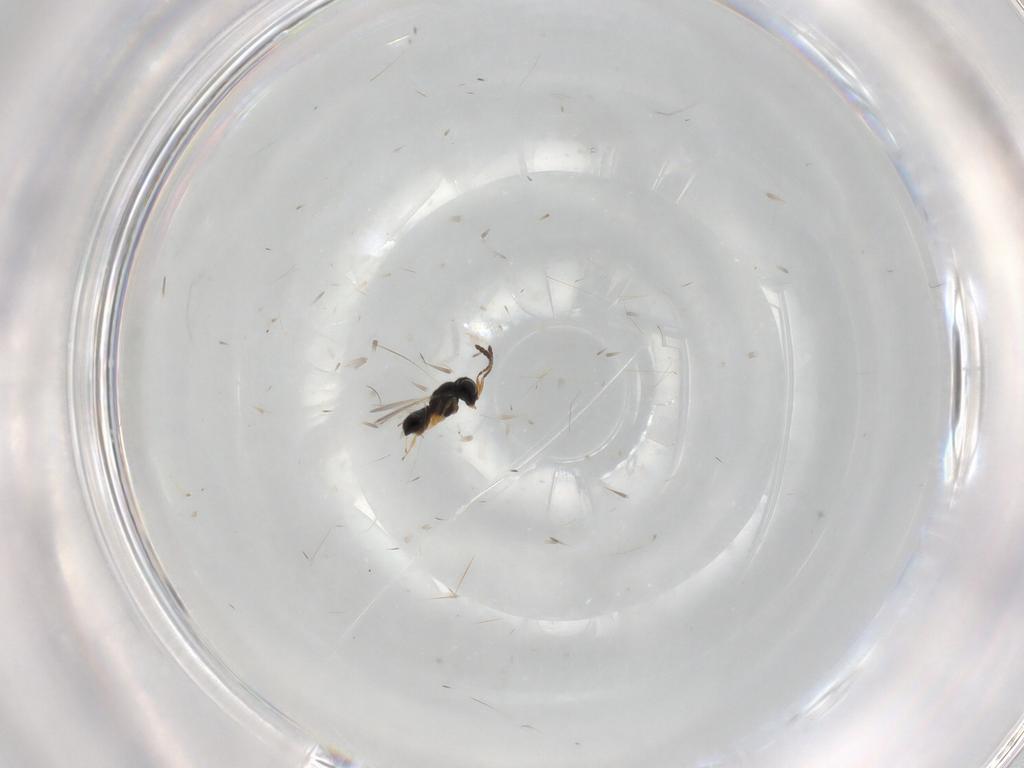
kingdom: Animalia
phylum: Arthropoda
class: Insecta
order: Hymenoptera
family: Scelionidae
